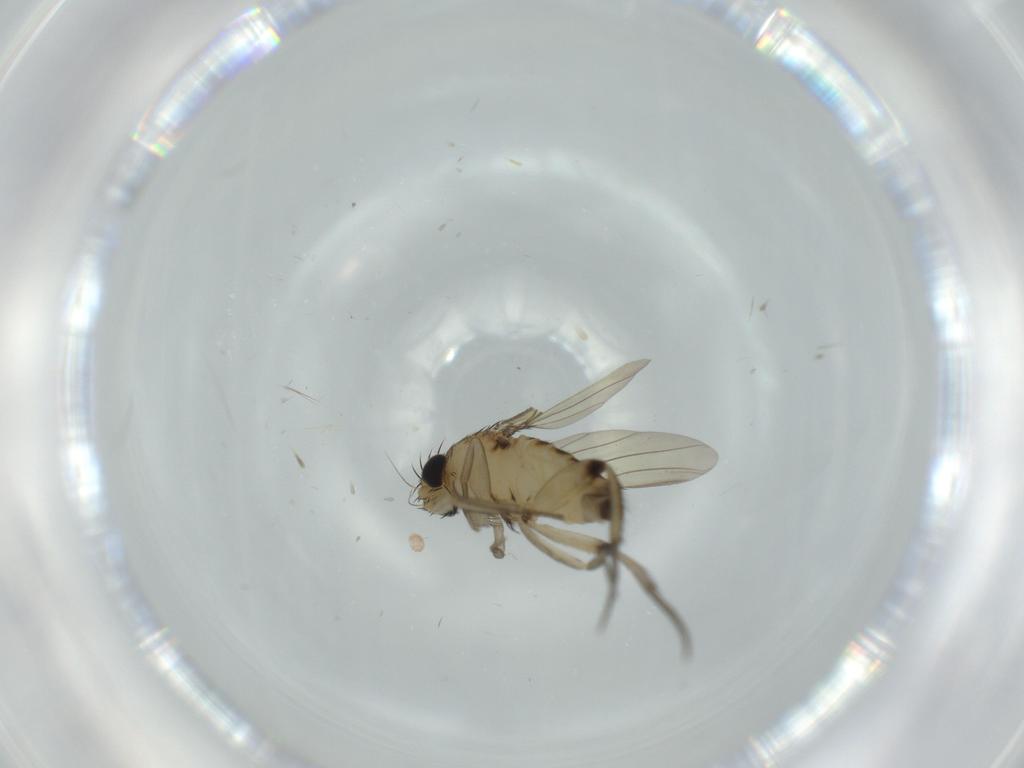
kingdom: Animalia
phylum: Arthropoda
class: Insecta
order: Diptera
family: Phoridae
